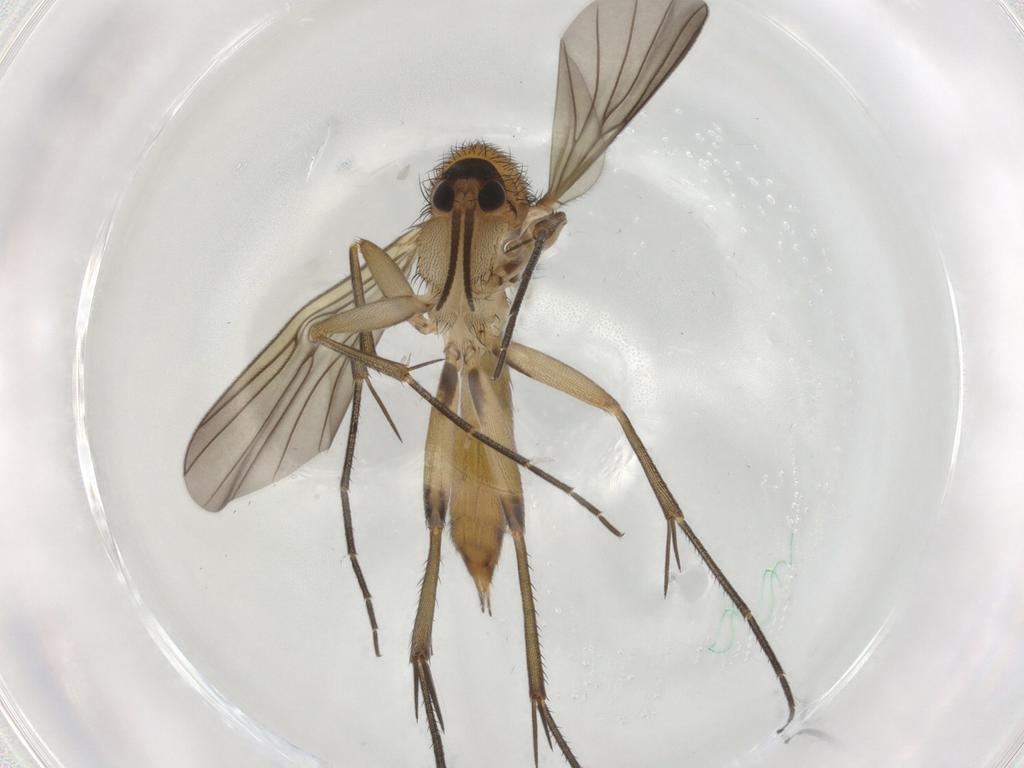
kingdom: Animalia
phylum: Arthropoda
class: Insecta
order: Diptera
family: Mycetophilidae
